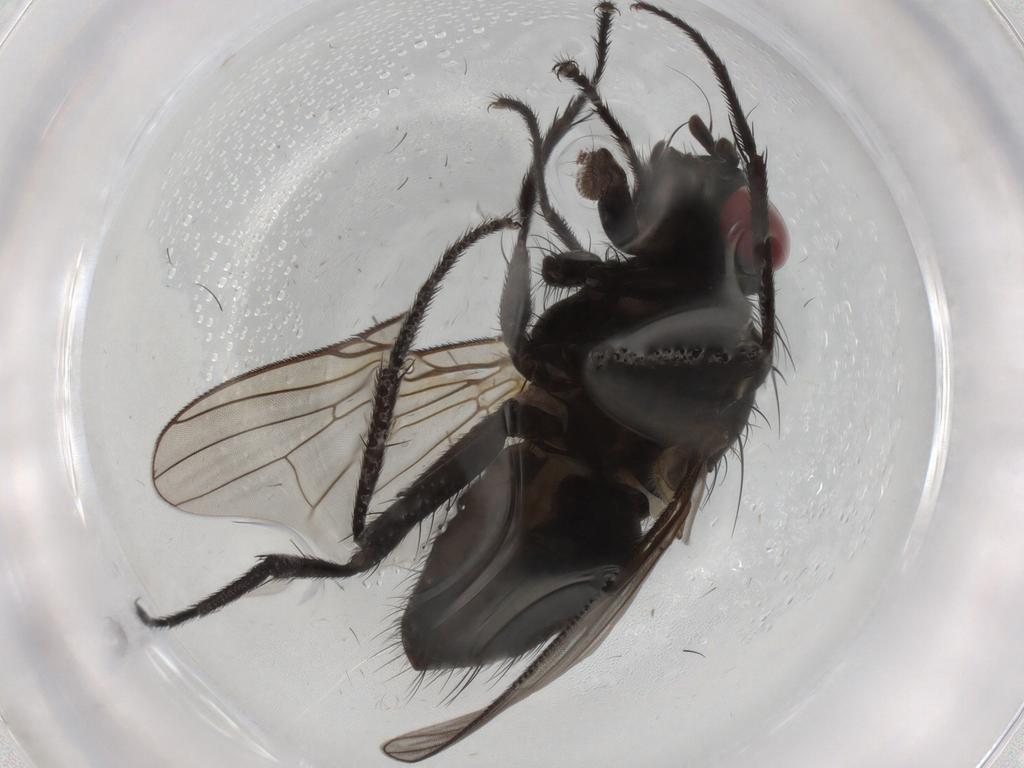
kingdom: Animalia
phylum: Arthropoda
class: Insecta
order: Diptera
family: Muscidae
